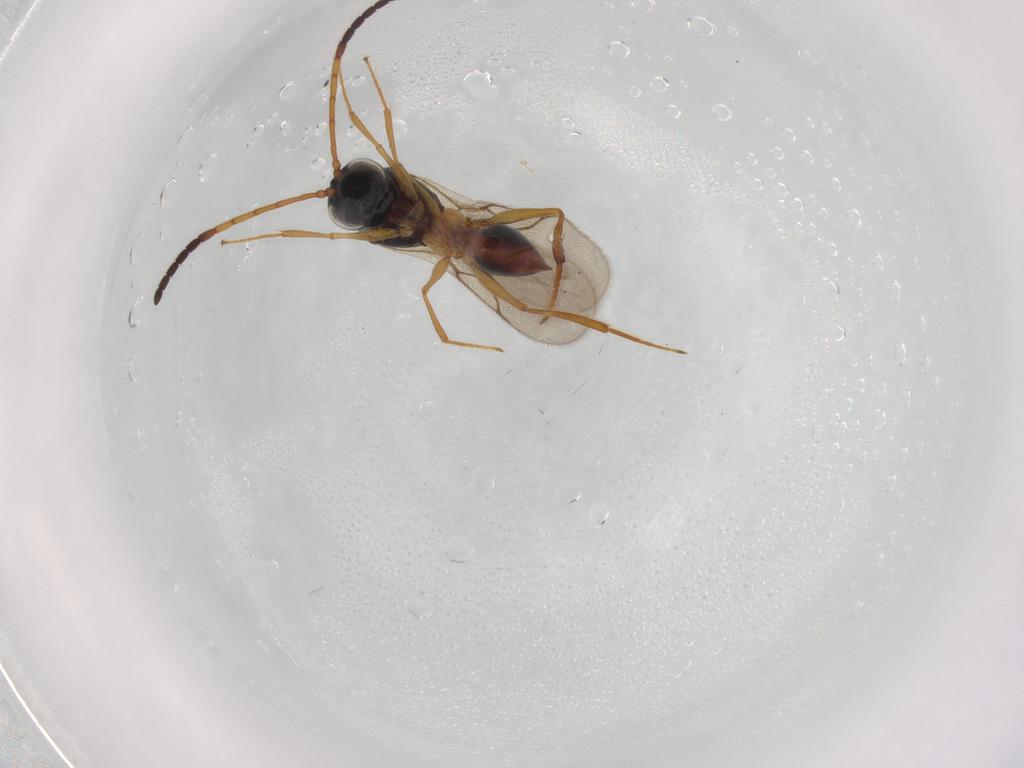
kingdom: Animalia
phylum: Arthropoda
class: Insecta
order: Hymenoptera
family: Figitidae
